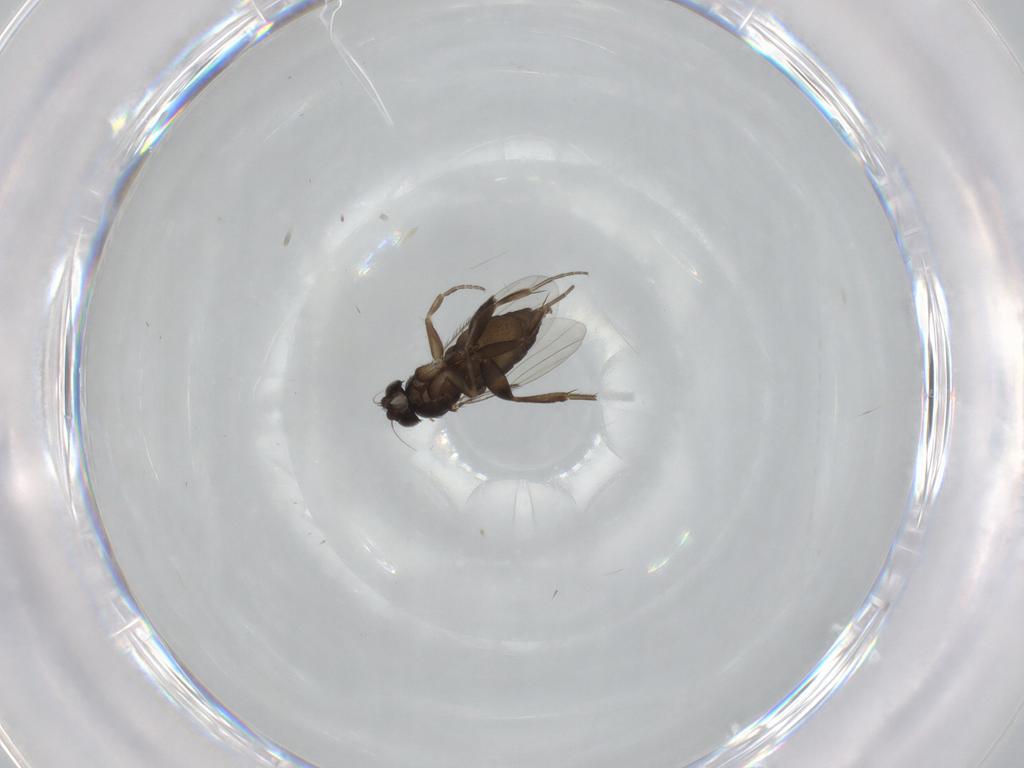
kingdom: Animalia
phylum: Arthropoda
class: Insecta
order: Diptera
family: Phoridae
